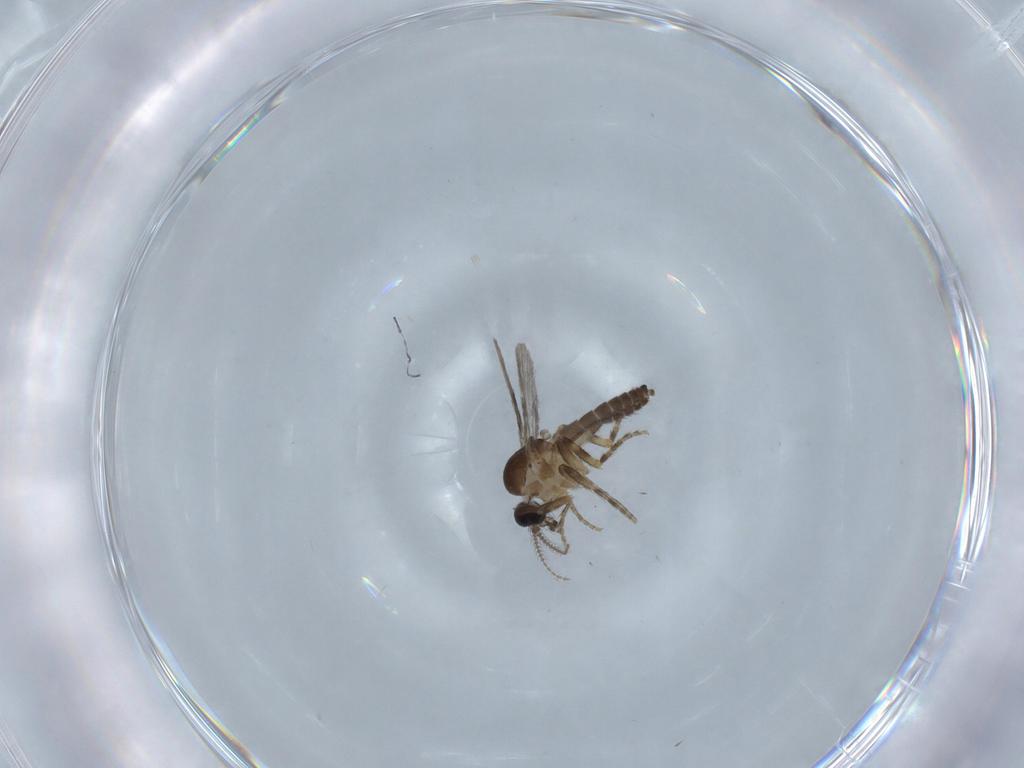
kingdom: Animalia
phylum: Arthropoda
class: Insecta
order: Diptera
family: Ceratopogonidae
